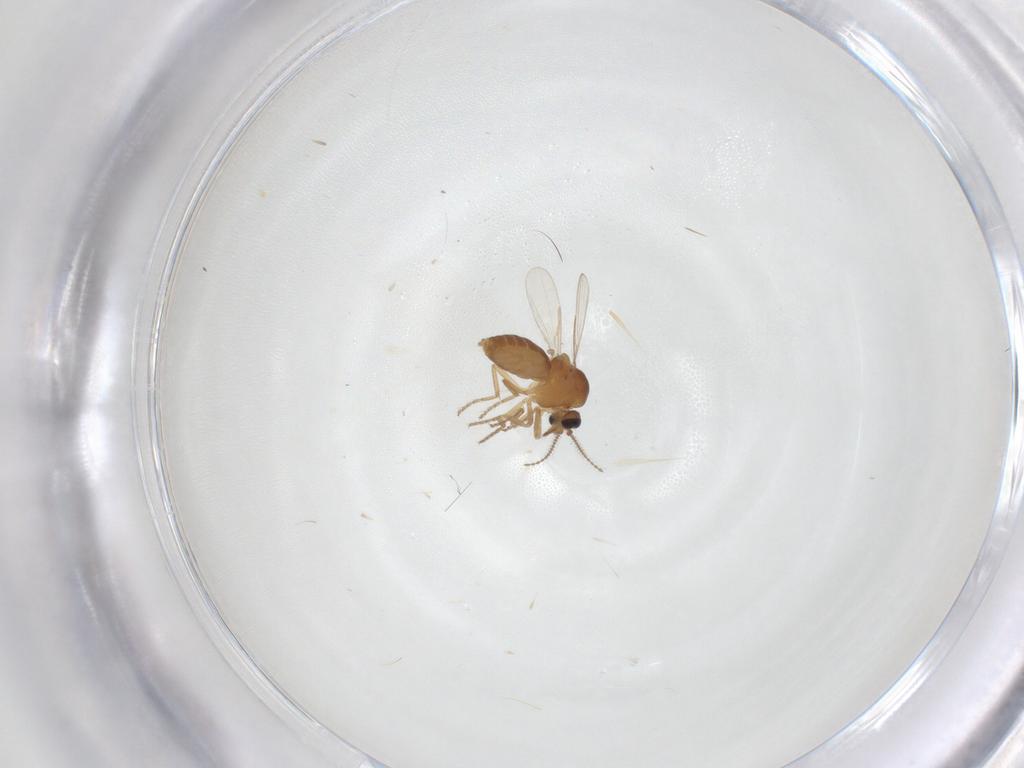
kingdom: Animalia
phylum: Arthropoda
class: Insecta
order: Diptera
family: Ceratopogonidae
